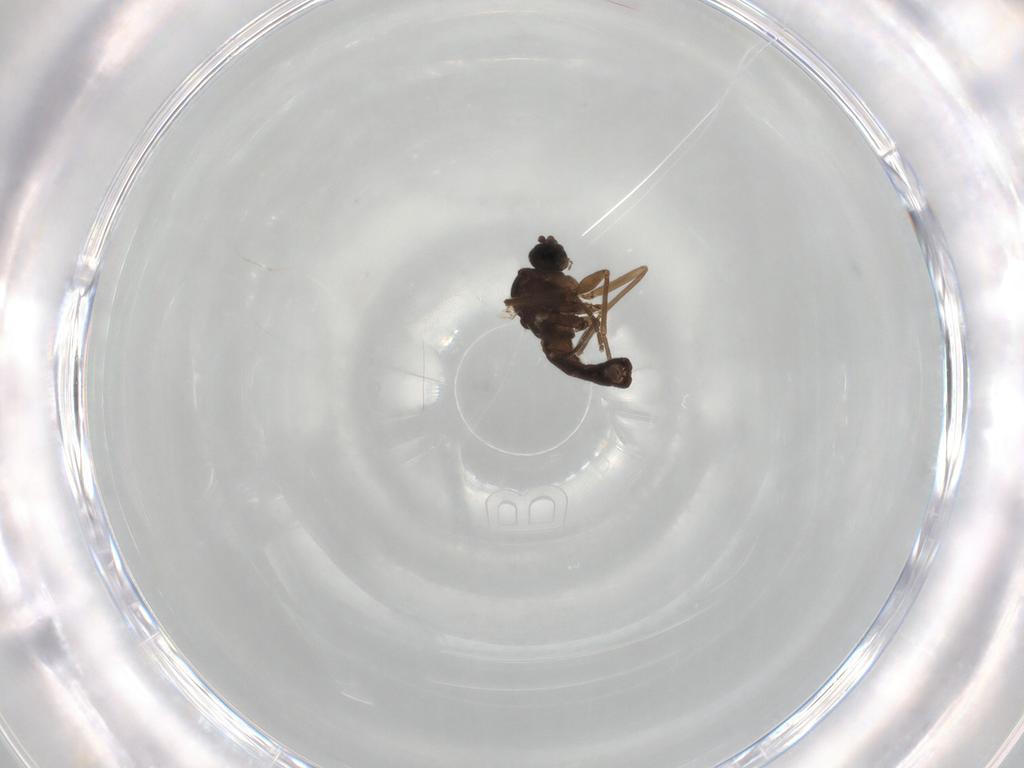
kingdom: Animalia
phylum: Arthropoda
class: Insecta
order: Diptera
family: Sciaridae
